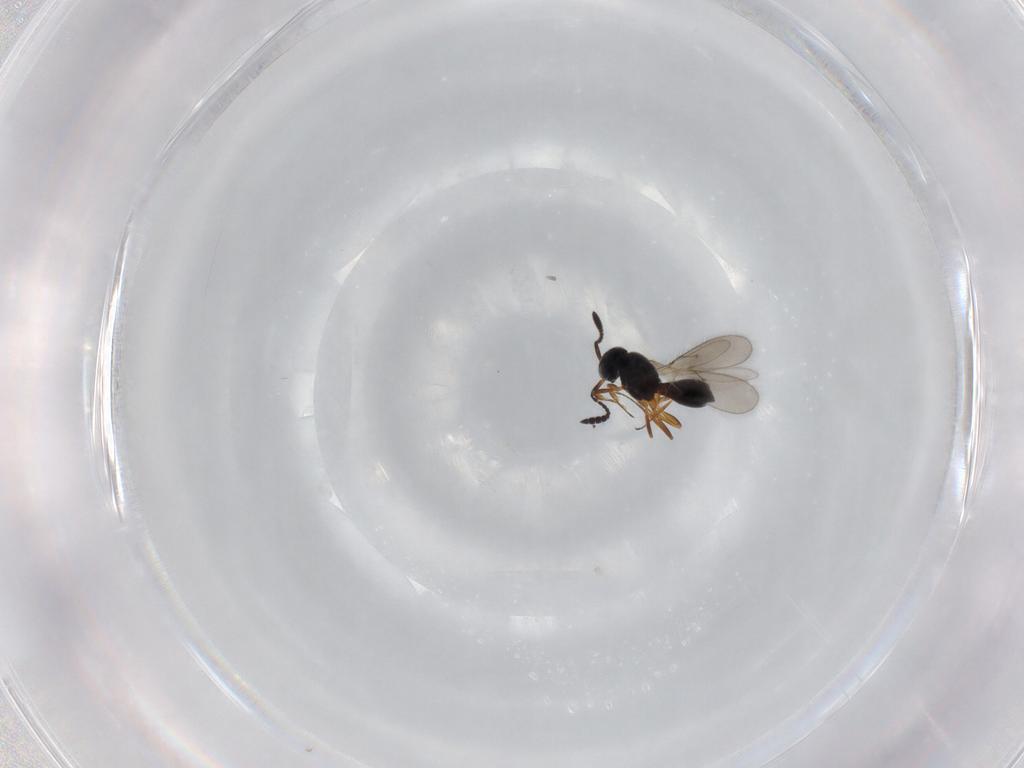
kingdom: Animalia
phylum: Arthropoda
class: Insecta
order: Hymenoptera
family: Scelionidae
